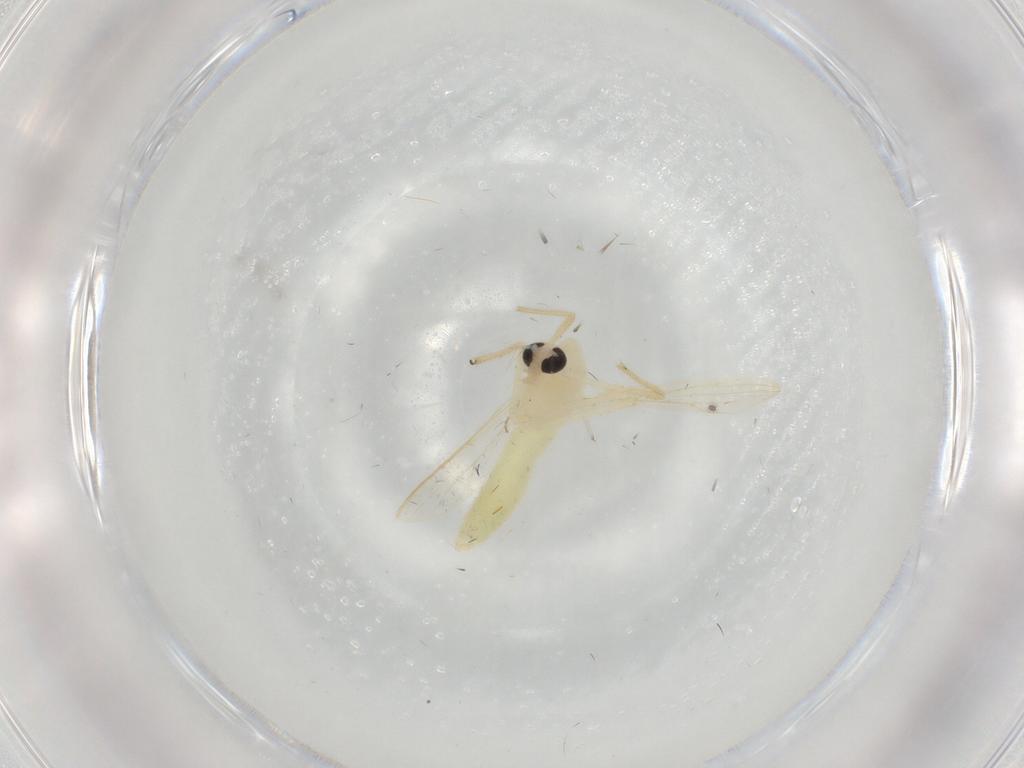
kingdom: Animalia
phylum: Arthropoda
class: Insecta
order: Diptera
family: Chironomidae
